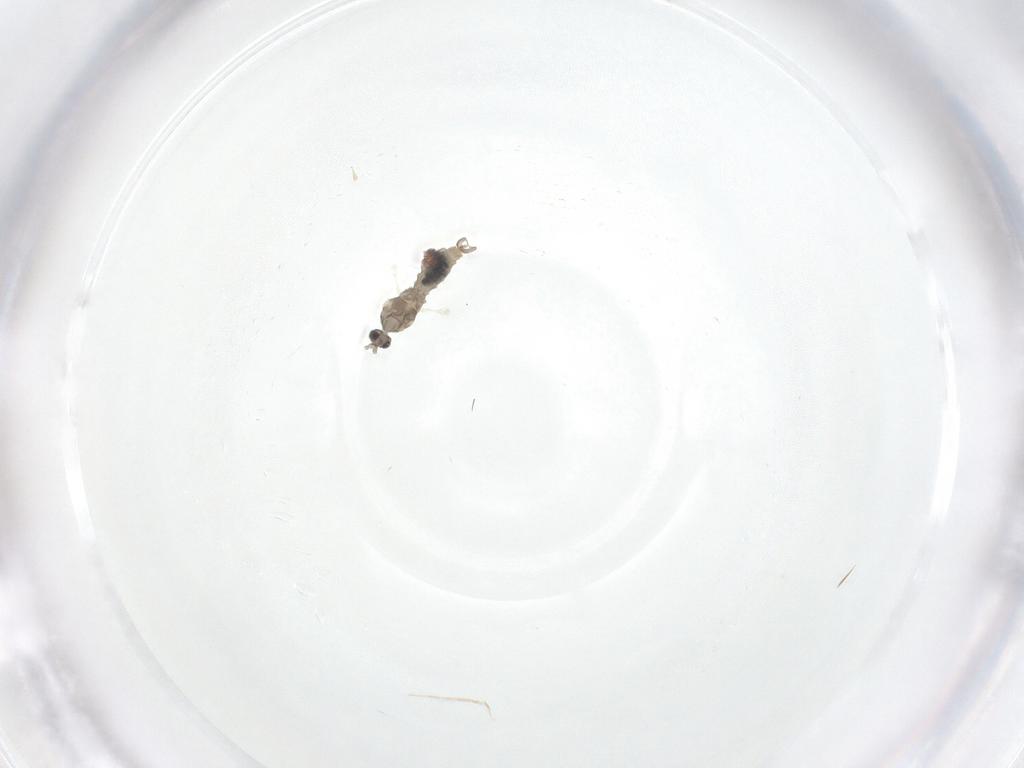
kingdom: Animalia
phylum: Arthropoda
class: Insecta
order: Diptera
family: Cecidomyiidae
